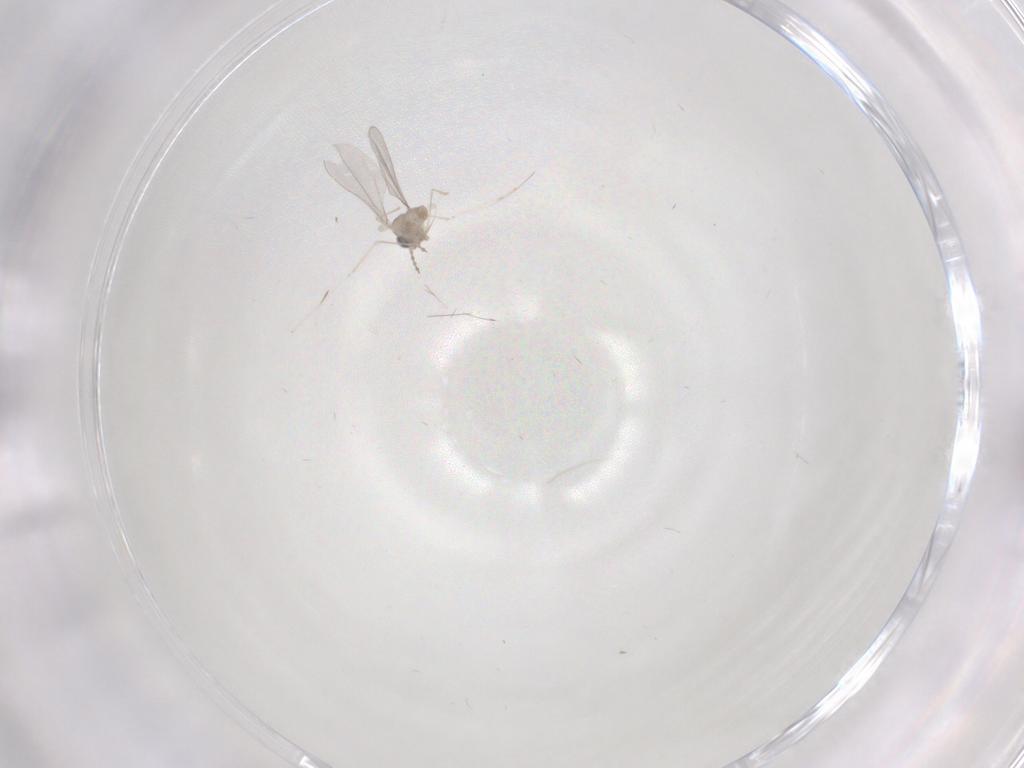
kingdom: Animalia
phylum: Arthropoda
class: Insecta
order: Diptera
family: Cecidomyiidae
